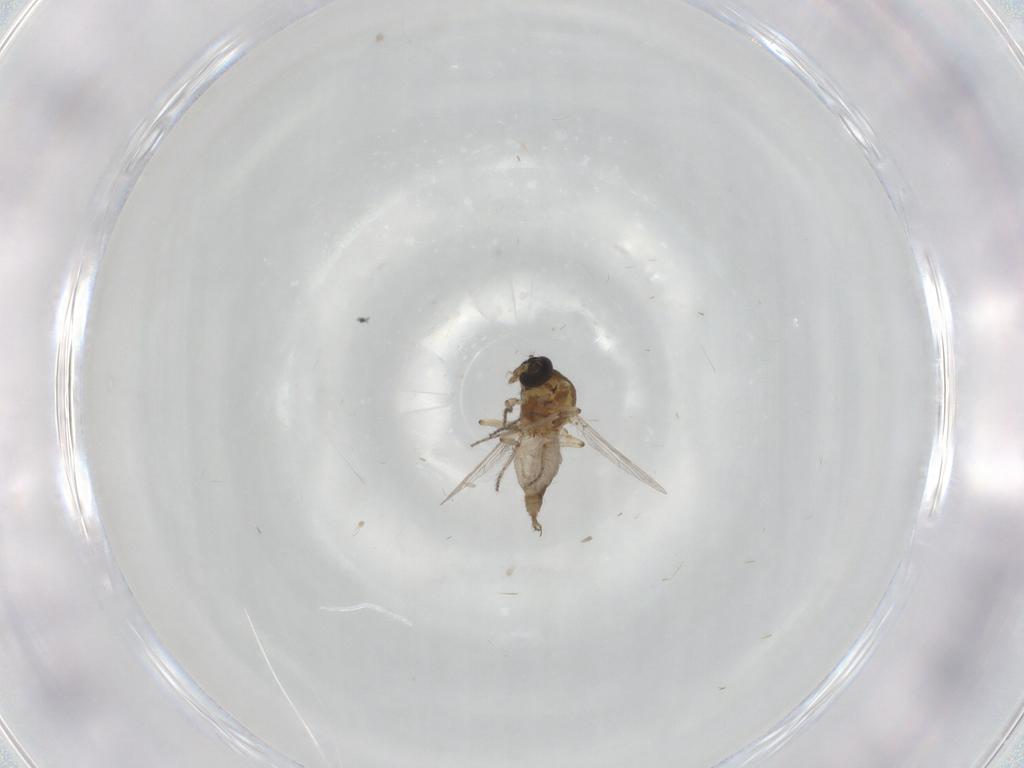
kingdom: Animalia
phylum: Arthropoda
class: Insecta
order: Diptera
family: Ceratopogonidae
